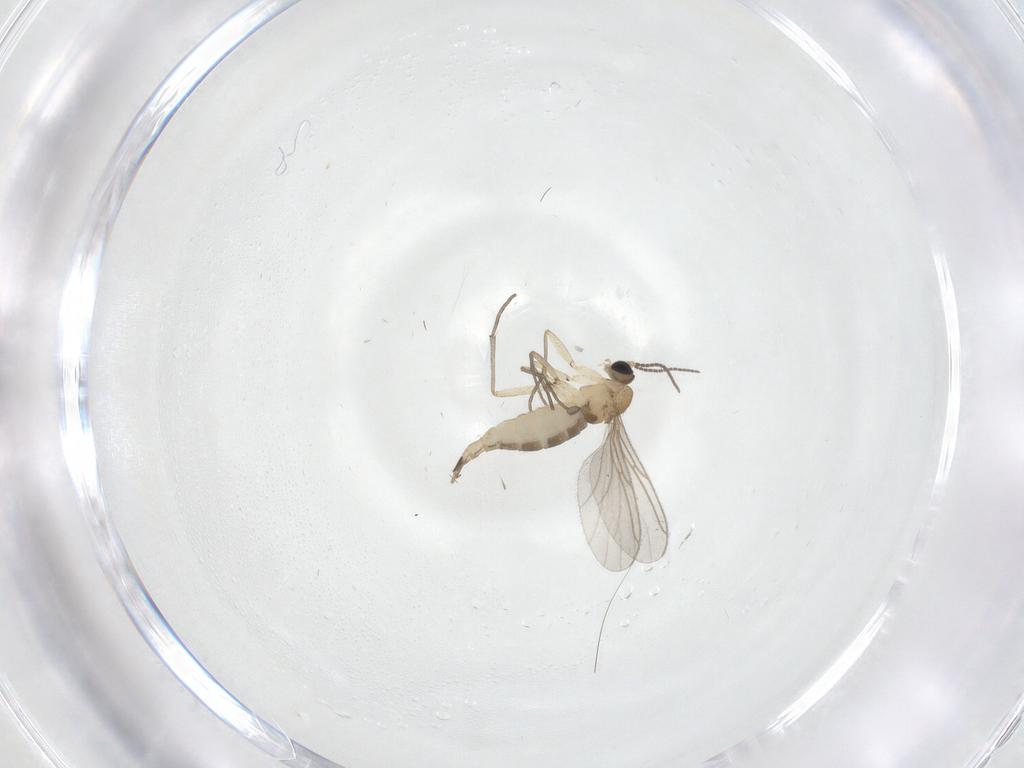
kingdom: Animalia
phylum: Arthropoda
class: Insecta
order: Diptera
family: Sciaridae
